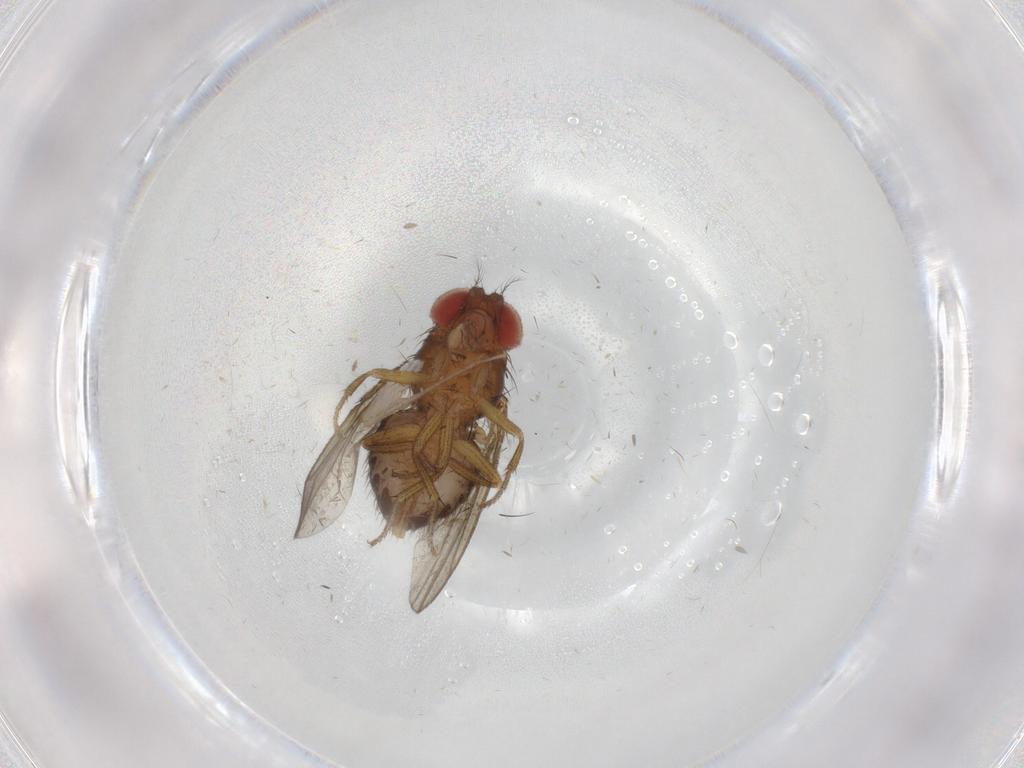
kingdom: Animalia
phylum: Arthropoda
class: Insecta
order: Diptera
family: Drosophilidae
